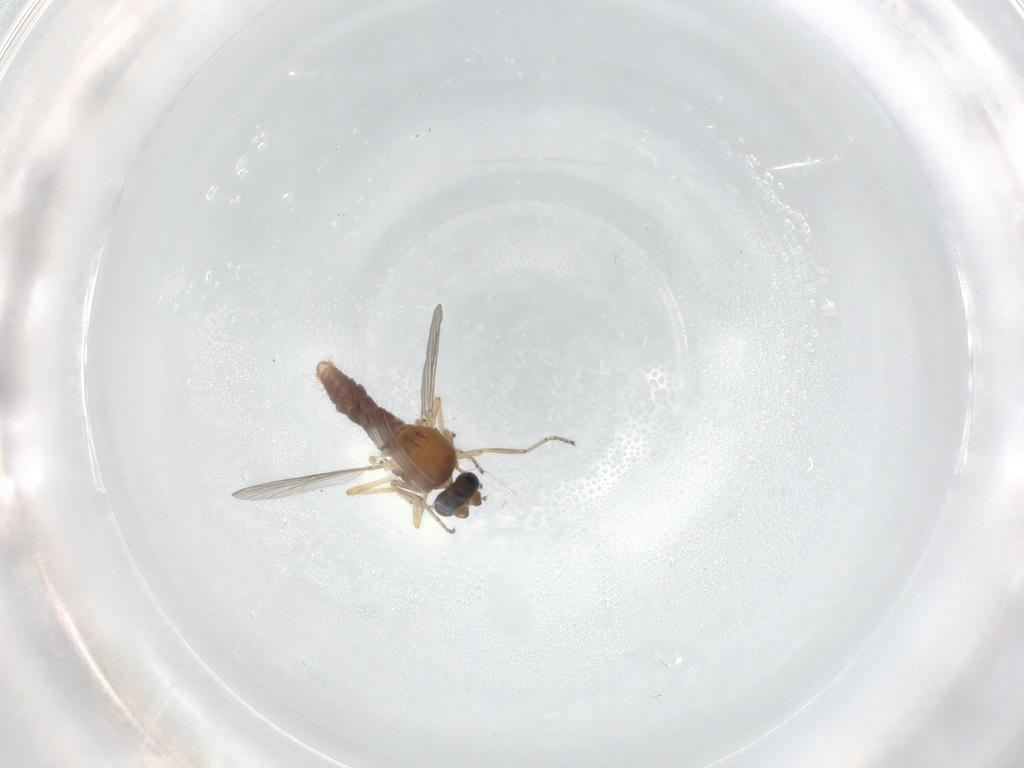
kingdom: Animalia
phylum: Arthropoda
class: Insecta
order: Diptera
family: Ceratopogonidae
